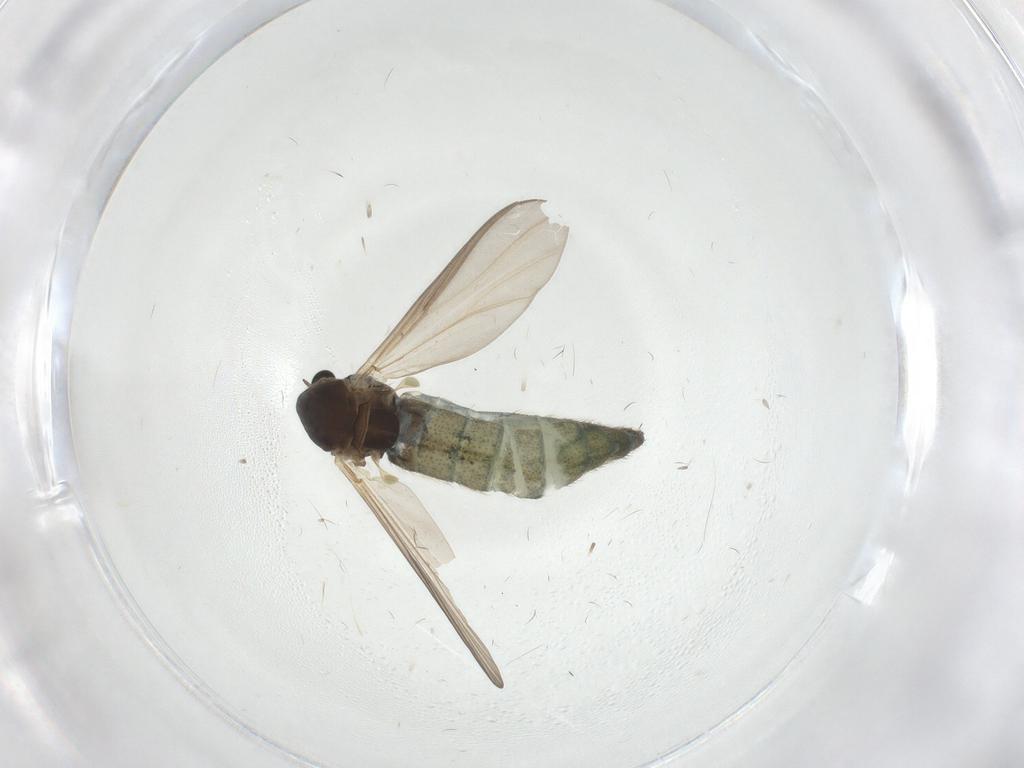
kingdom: Animalia
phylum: Arthropoda
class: Insecta
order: Diptera
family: Chironomidae
